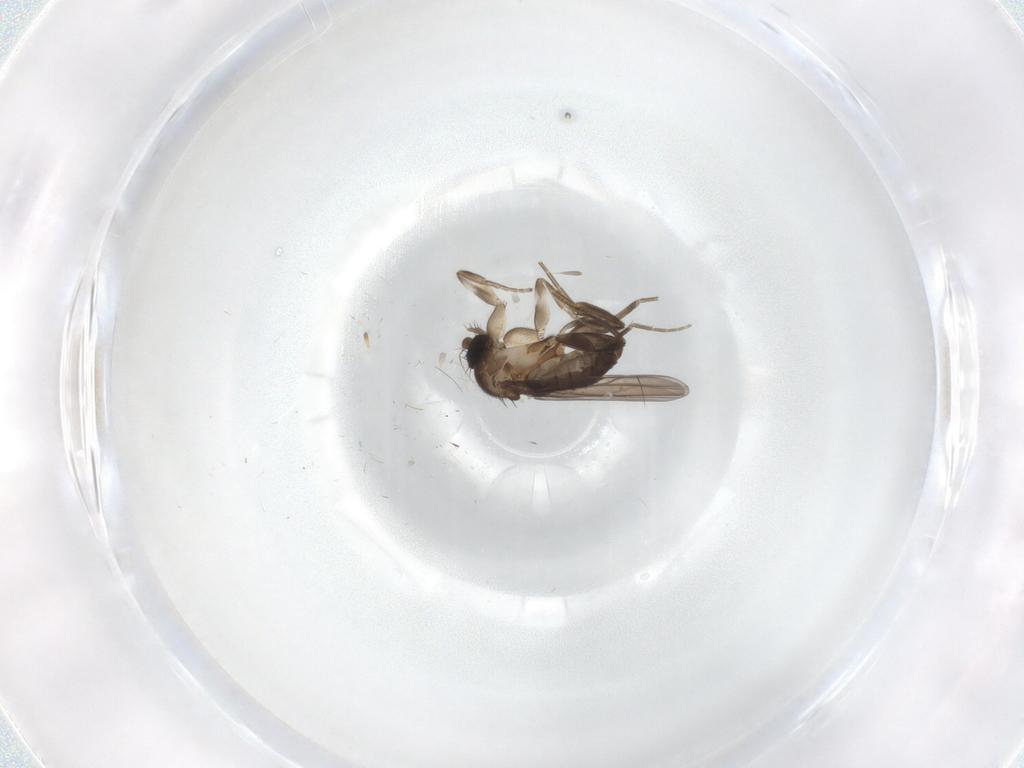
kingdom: Animalia
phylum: Arthropoda
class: Insecta
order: Diptera
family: Phoridae
